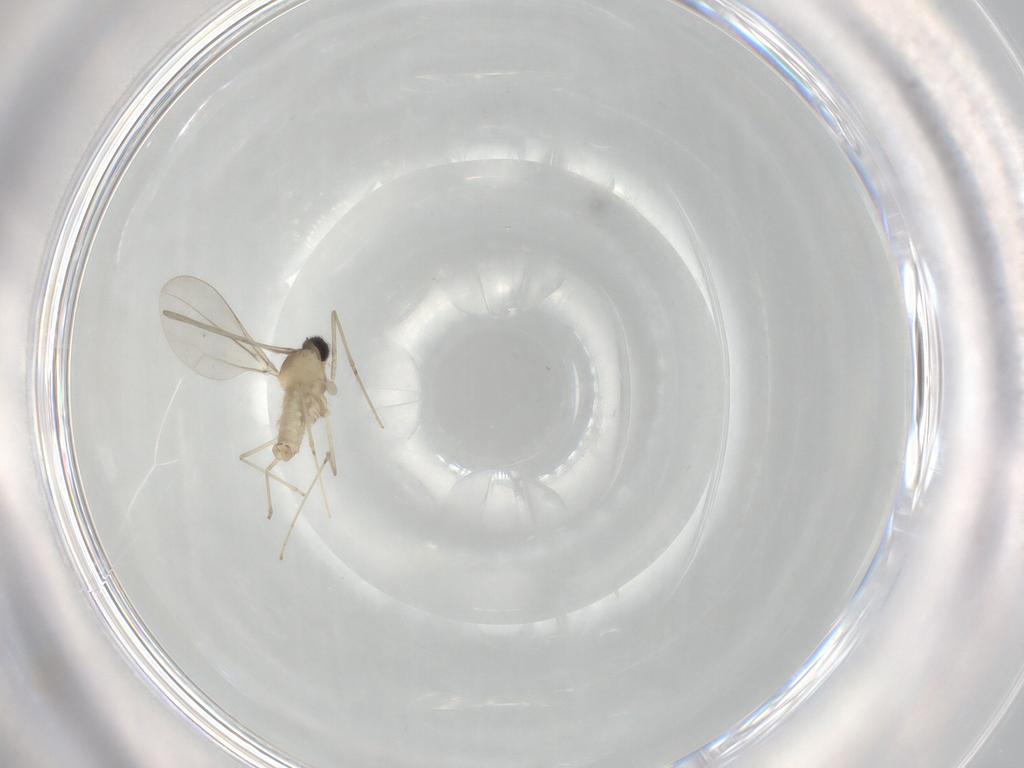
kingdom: Animalia
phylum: Arthropoda
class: Insecta
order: Diptera
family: Cecidomyiidae
